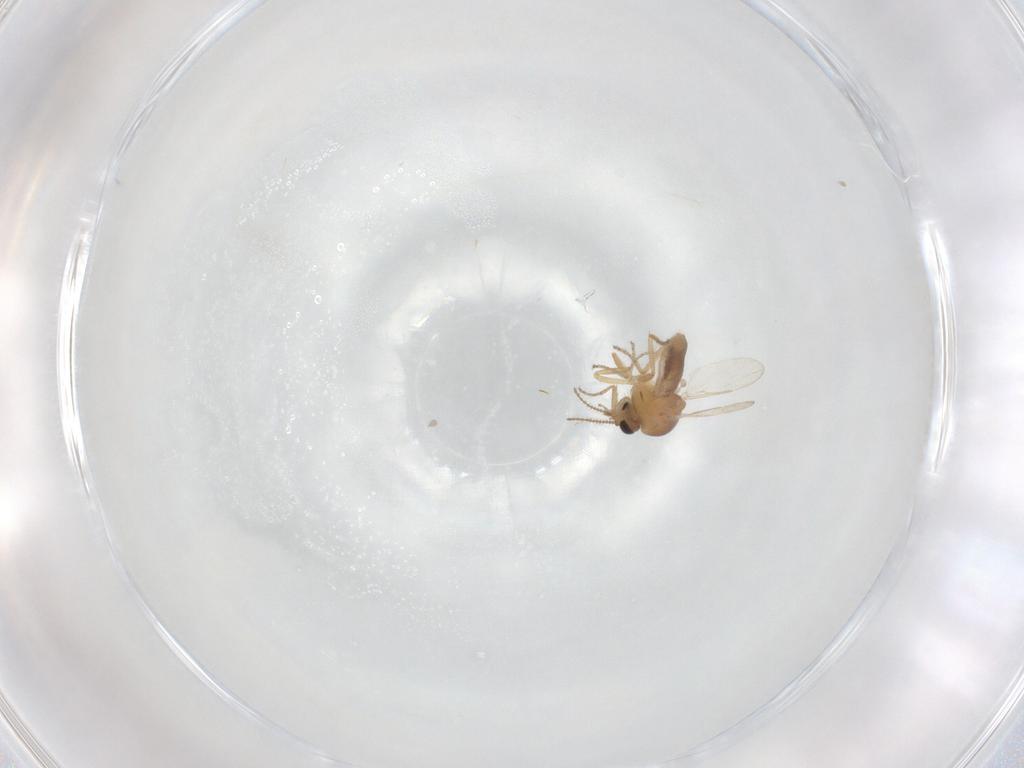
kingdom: Animalia
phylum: Arthropoda
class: Insecta
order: Diptera
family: Ceratopogonidae
